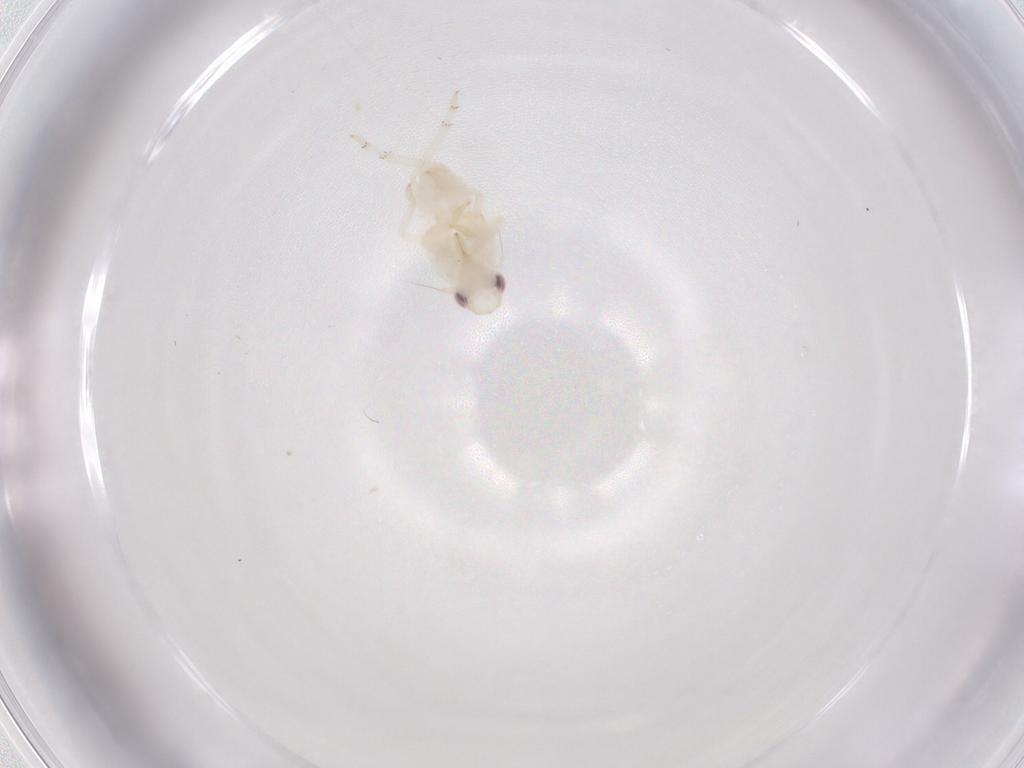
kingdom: Animalia
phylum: Arthropoda
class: Insecta
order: Hemiptera
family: Tropiduchidae
